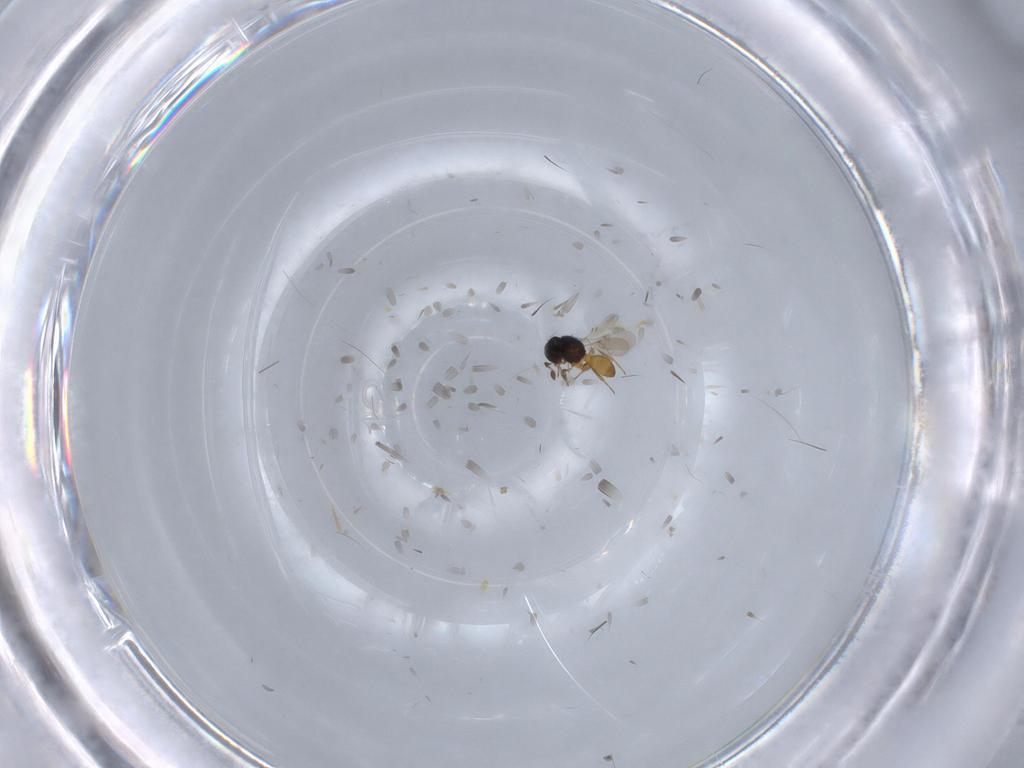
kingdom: Animalia
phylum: Arthropoda
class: Insecta
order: Hymenoptera
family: Scelionidae
